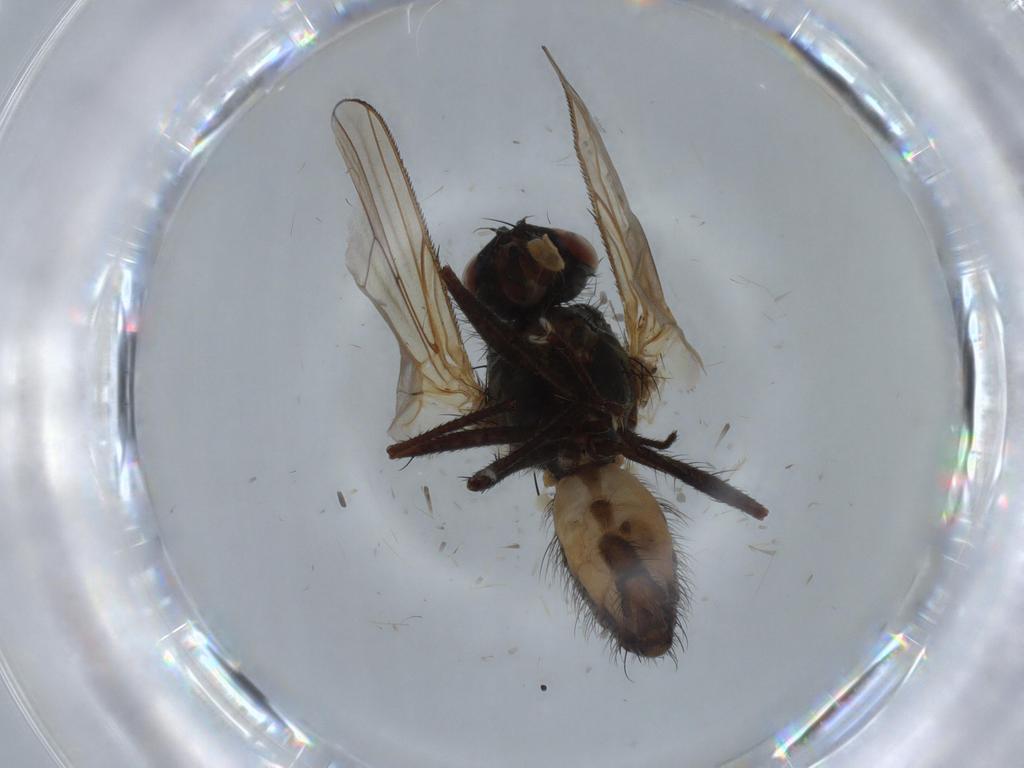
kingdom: Animalia
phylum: Arthropoda
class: Insecta
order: Diptera
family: Anthomyiidae
